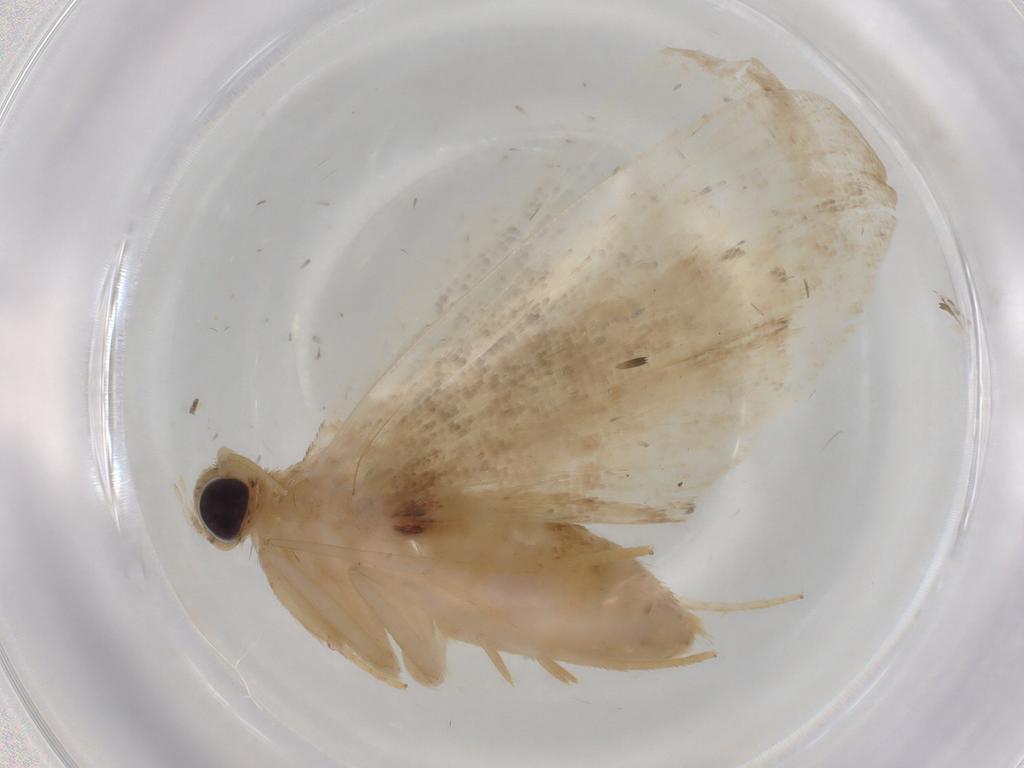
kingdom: Animalia
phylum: Arthropoda
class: Insecta
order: Lepidoptera
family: Erebidae
